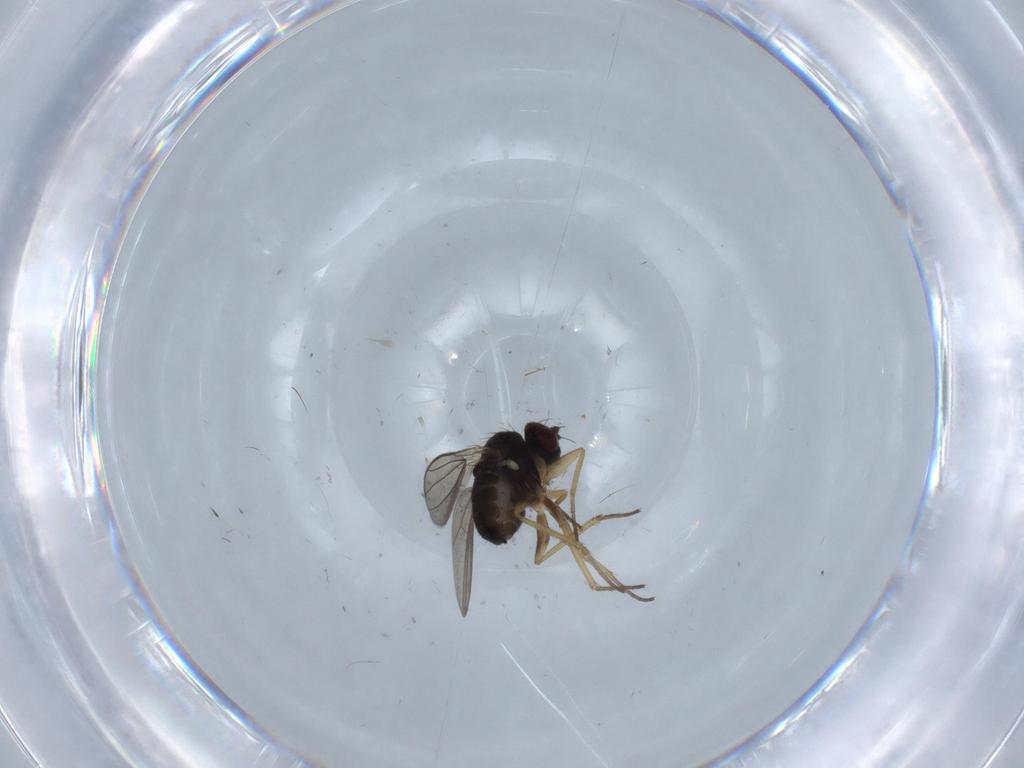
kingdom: Animalia
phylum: Arthropoda
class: Insecta
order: Diptera
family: Dolichopodidae
